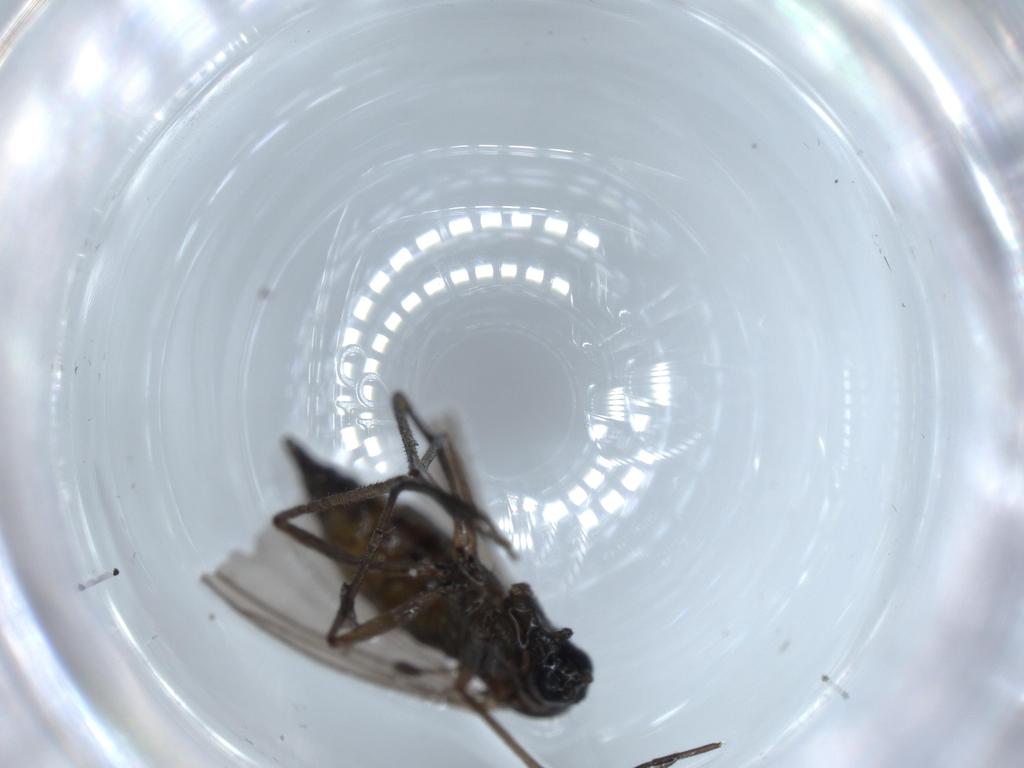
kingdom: Animalia
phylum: Arthropoda
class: Insecta
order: Diptera
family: Sciaridae
